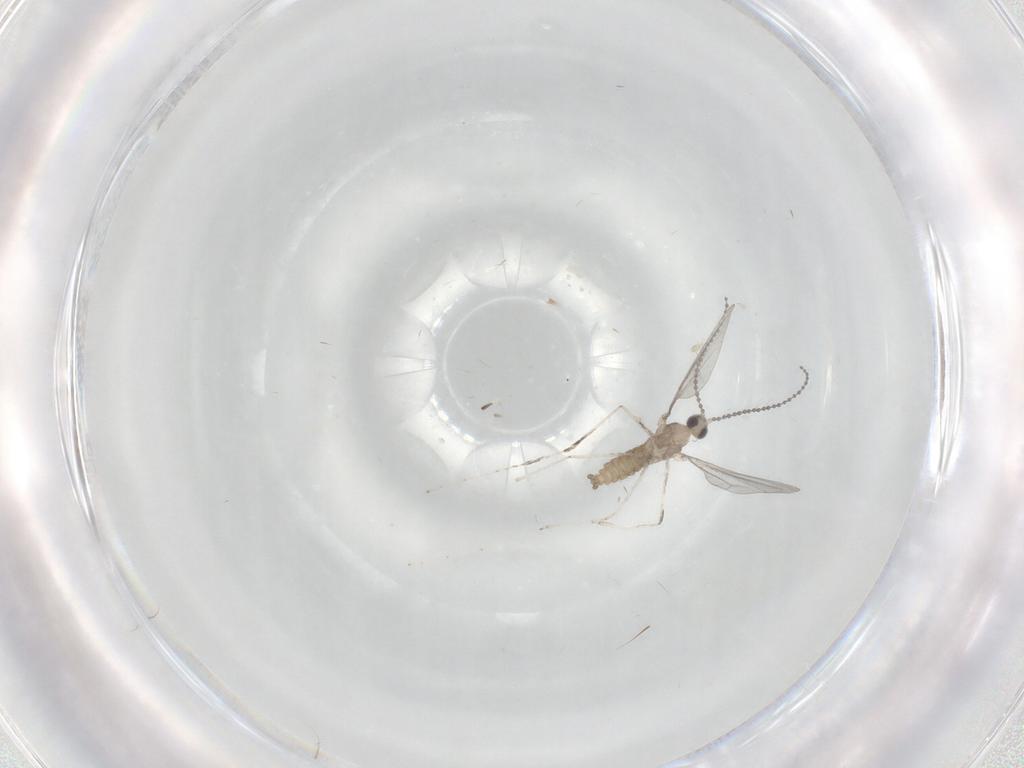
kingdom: Animalia
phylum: Arthropoda
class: Insecta
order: Diptera
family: Cecidomyiidae
